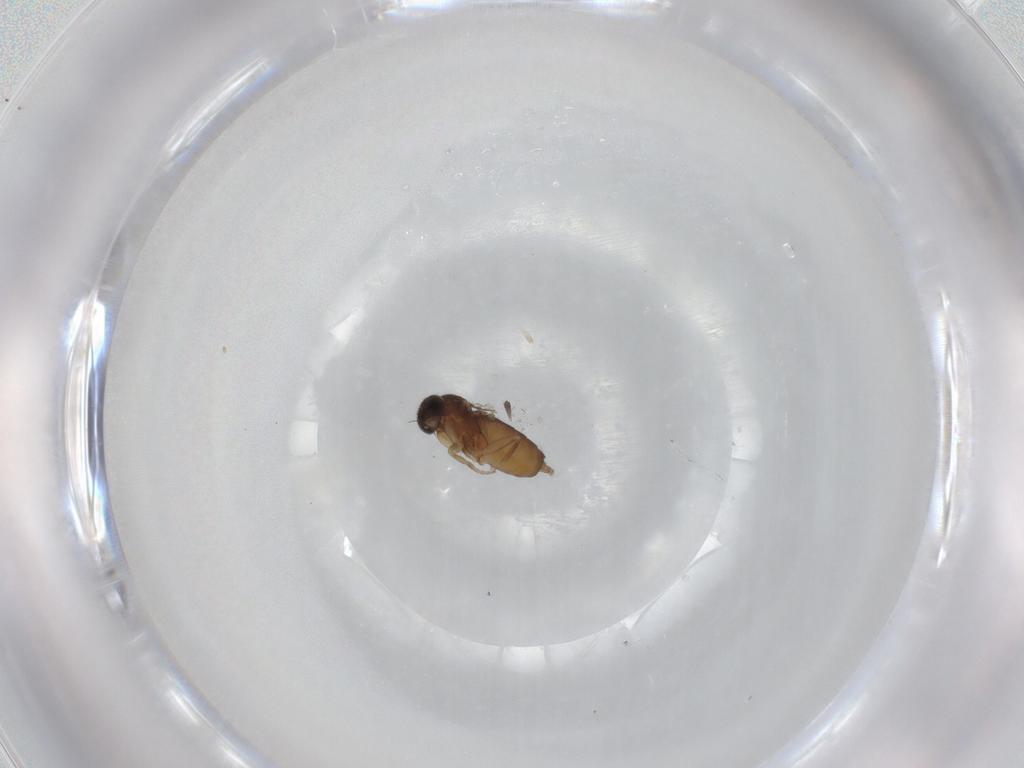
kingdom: Animalia
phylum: Arthropoda
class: Insecta
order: Diptera
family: Phoridae
